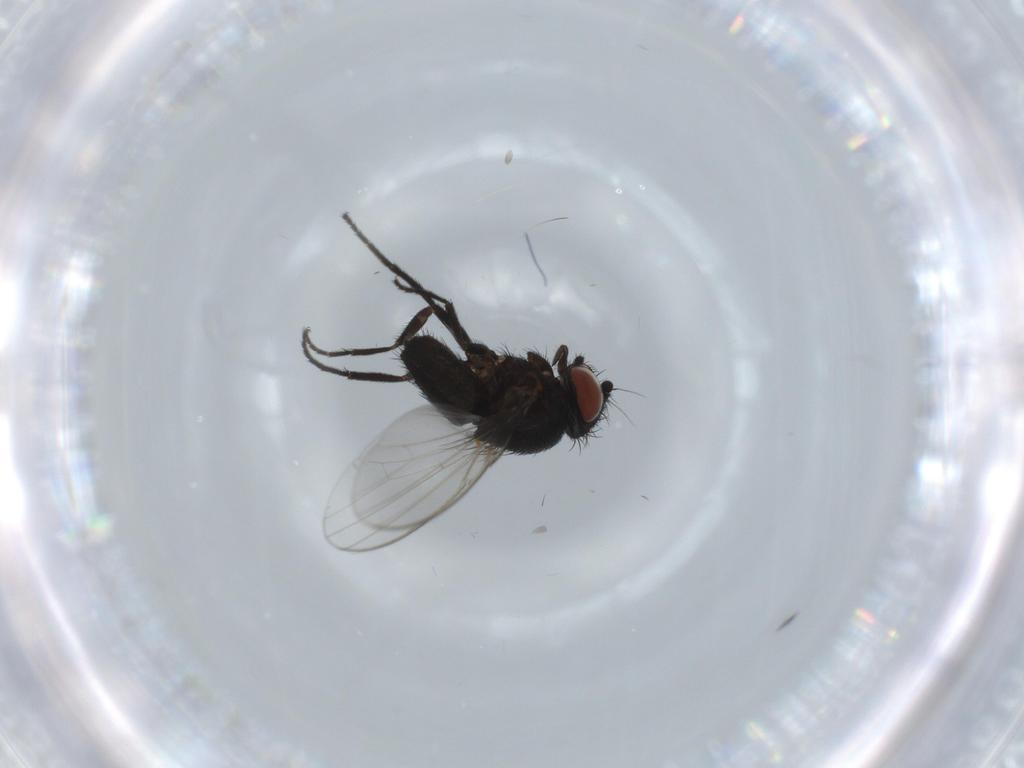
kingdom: Animalia
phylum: Arthropoda
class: Insecta
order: Diptera
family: Milichiidae
